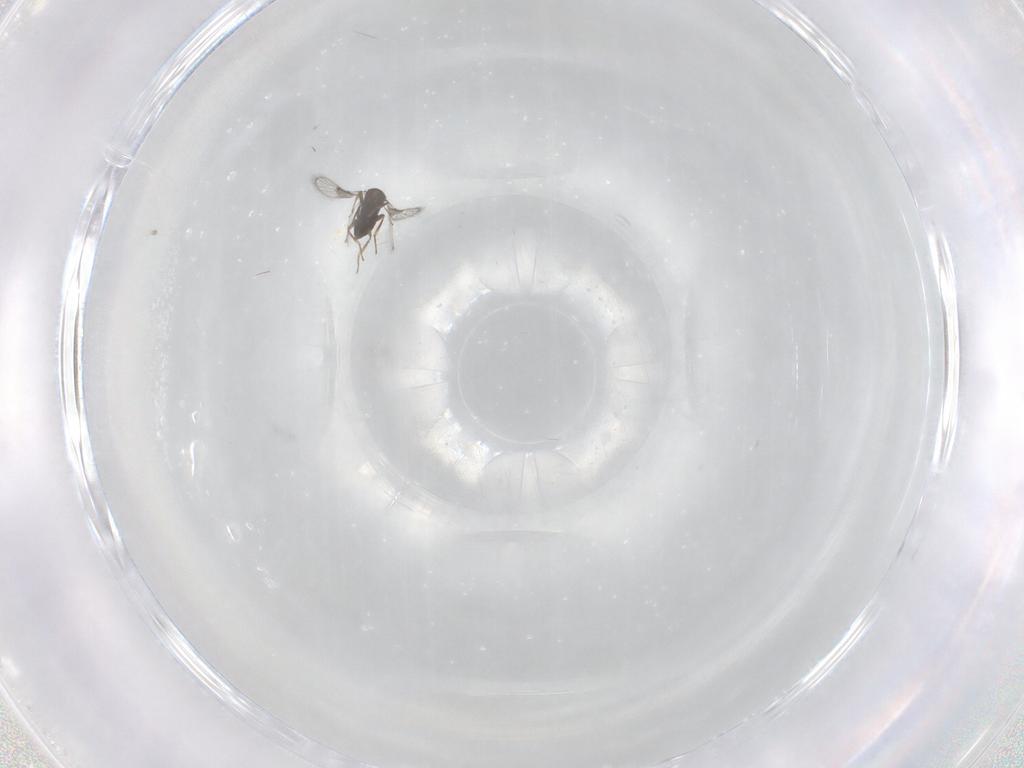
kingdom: Animalia
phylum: Arthropoda
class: Insecta
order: Hymenoptera
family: Trichogrammatidae
